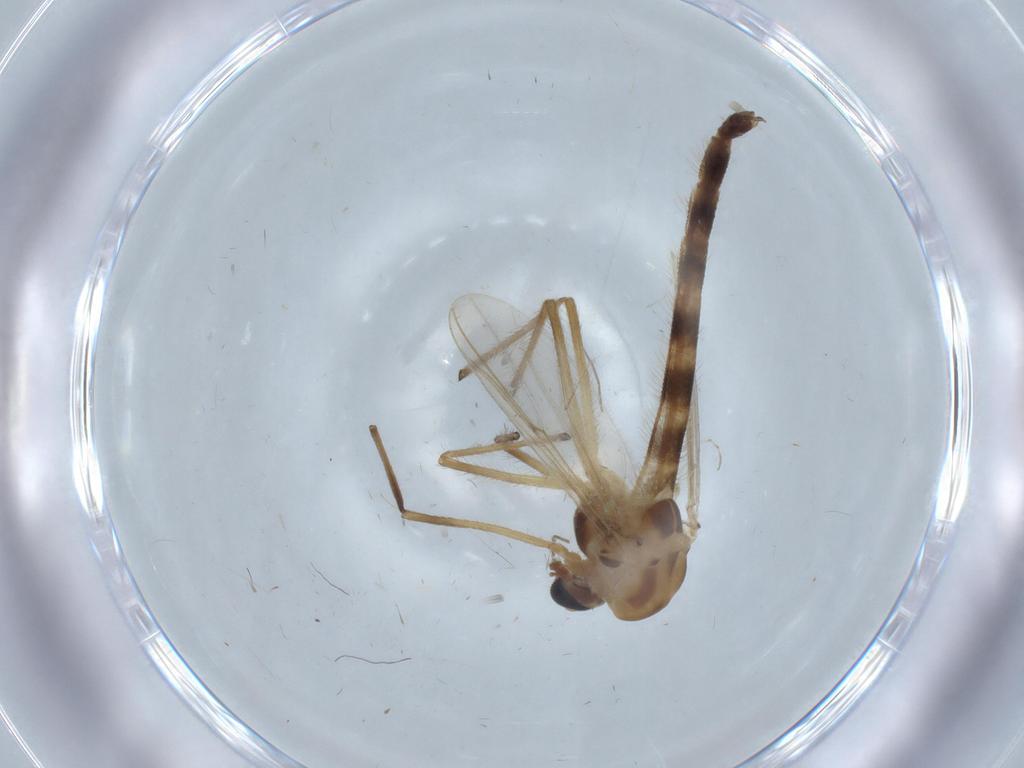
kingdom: Animalia
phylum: Arthropoda
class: Insecta
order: Diptera
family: Chironomidae
